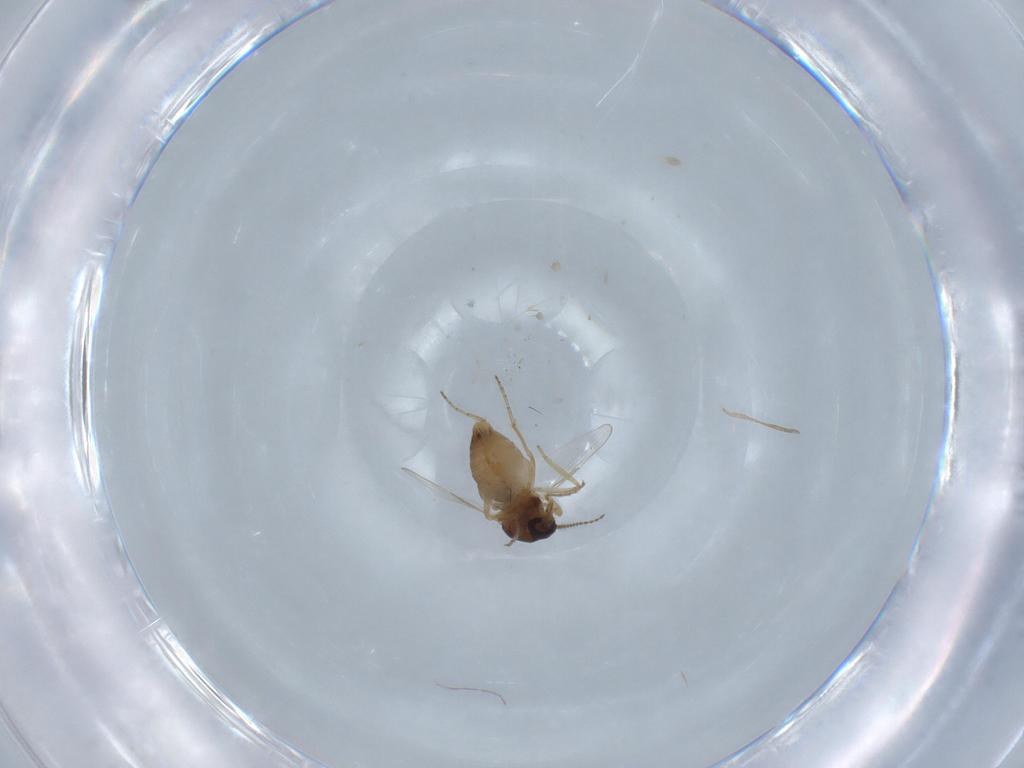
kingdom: Animalia
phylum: Arthropoda
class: Insecta
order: Diptera
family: Ceratopogonidae
